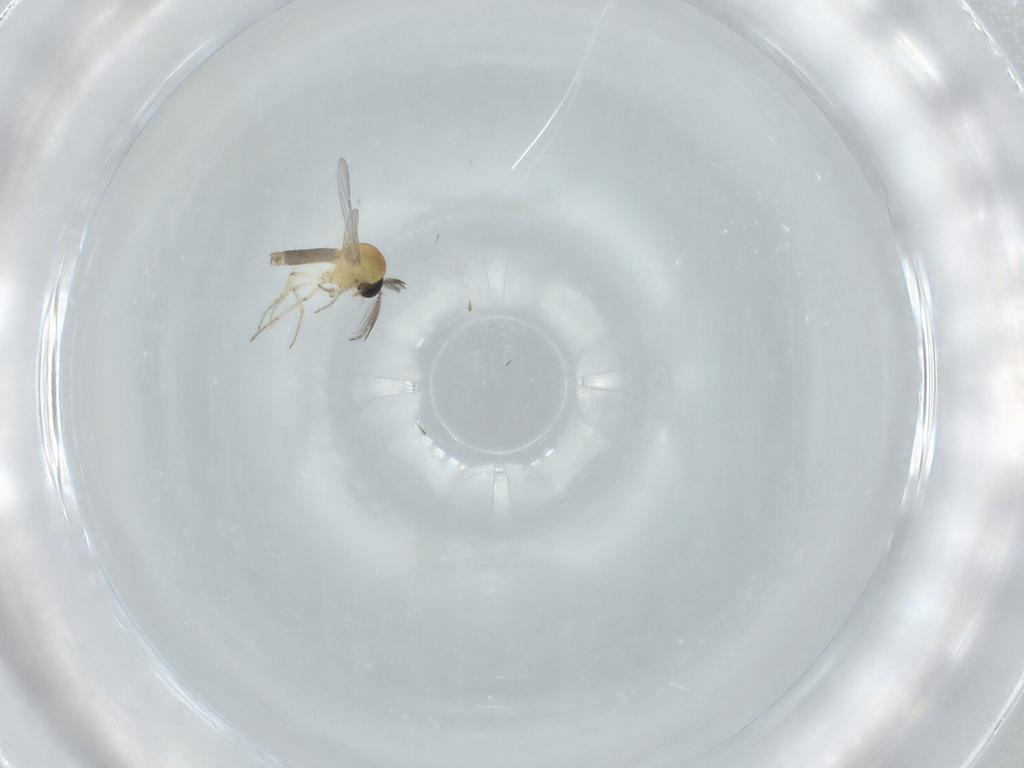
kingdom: Animalia
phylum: Arthropoda
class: Insecta
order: Diptera
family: Ceratopogonidae
